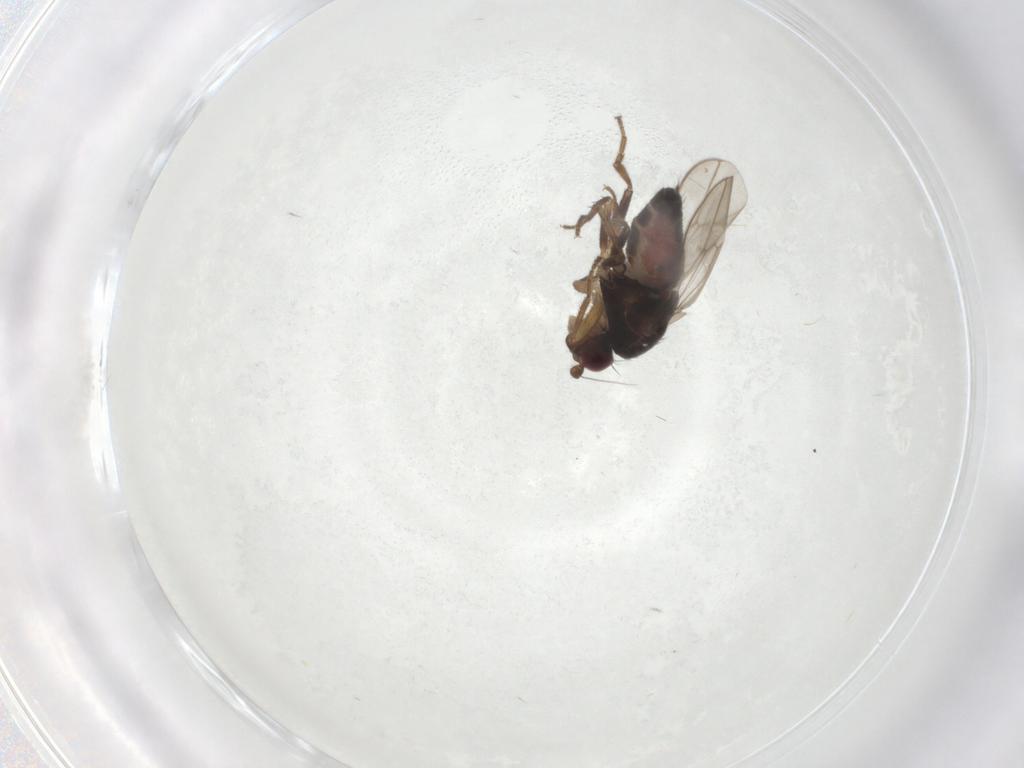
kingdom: Animalia
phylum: Arthropoda
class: Insecta
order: Diptera
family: Sphaeroceridae
